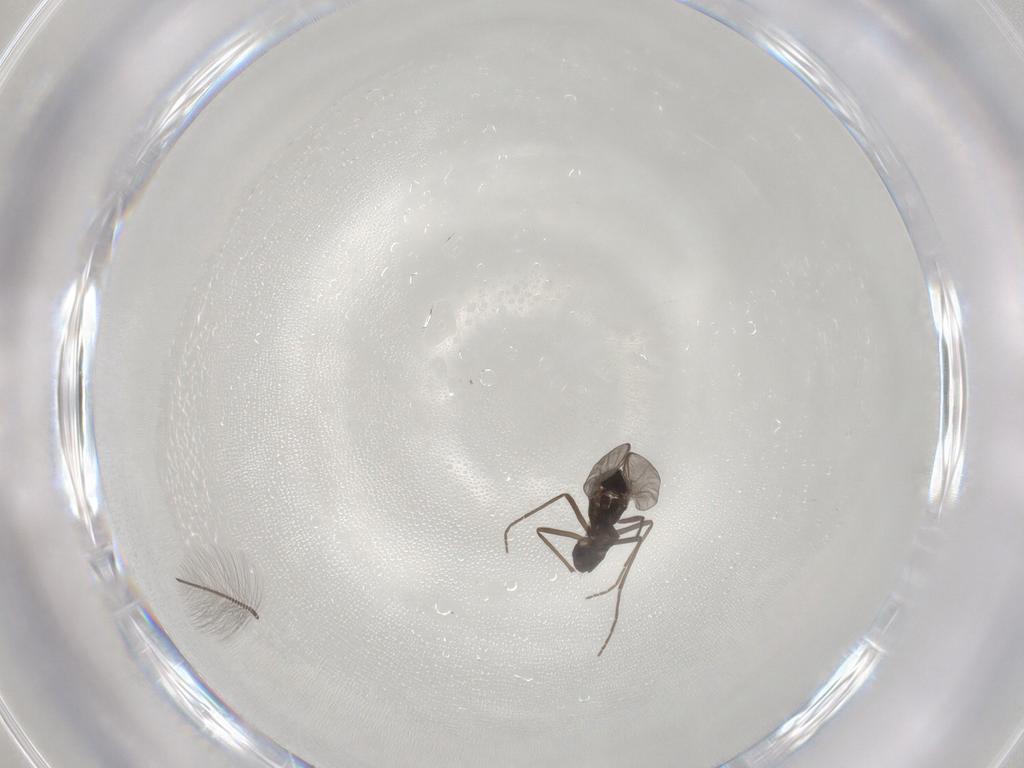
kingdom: Animalia
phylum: Arthropoda
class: Insecta
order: Diptera
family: Chironomidae
